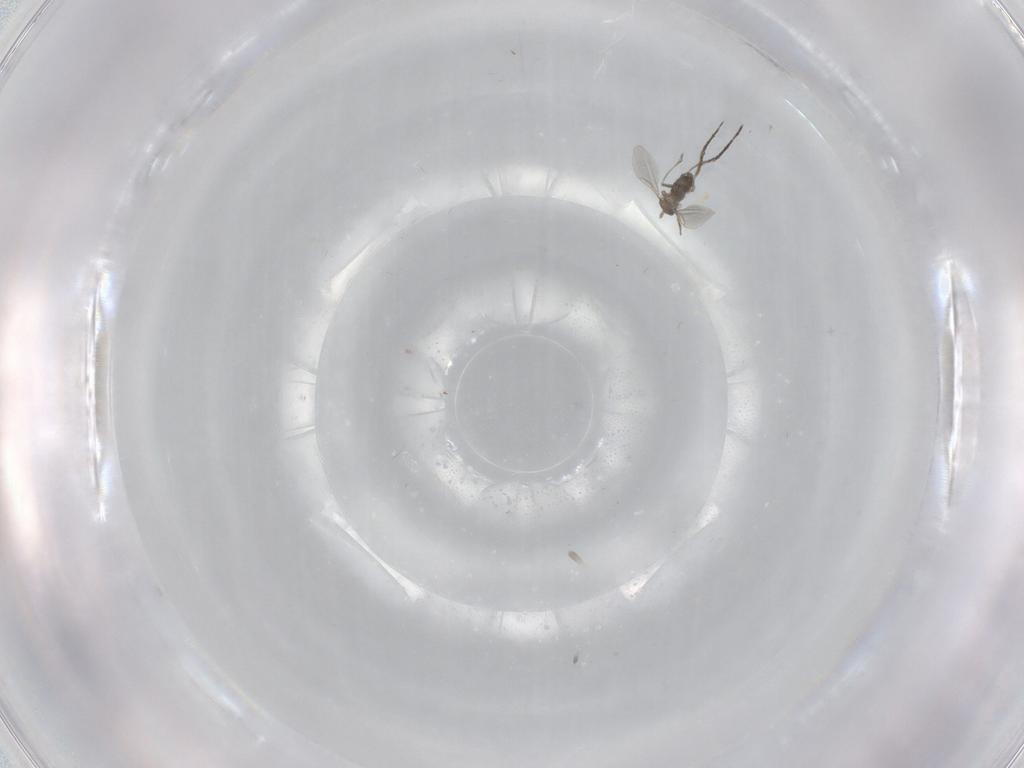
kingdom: Animalia
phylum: Arthropoda
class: Insecta
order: Diptera
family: Cecidomyiidae
